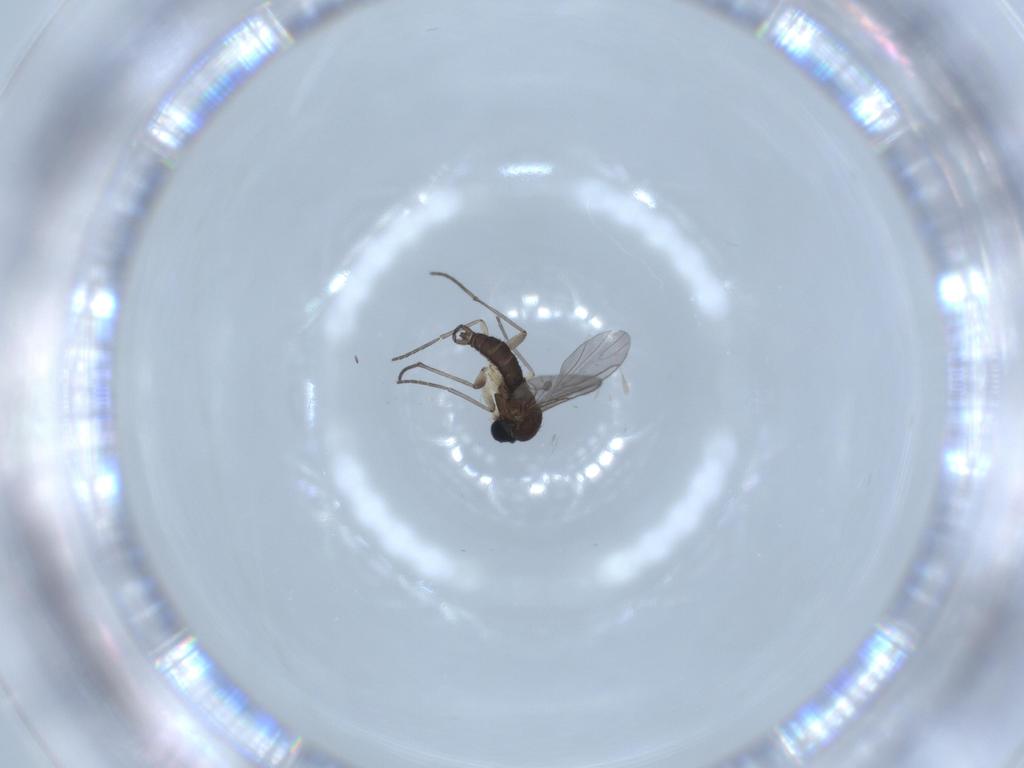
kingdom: Animalia
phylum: Arthropoda
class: Insecta
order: Diptera
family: Sciaridae
